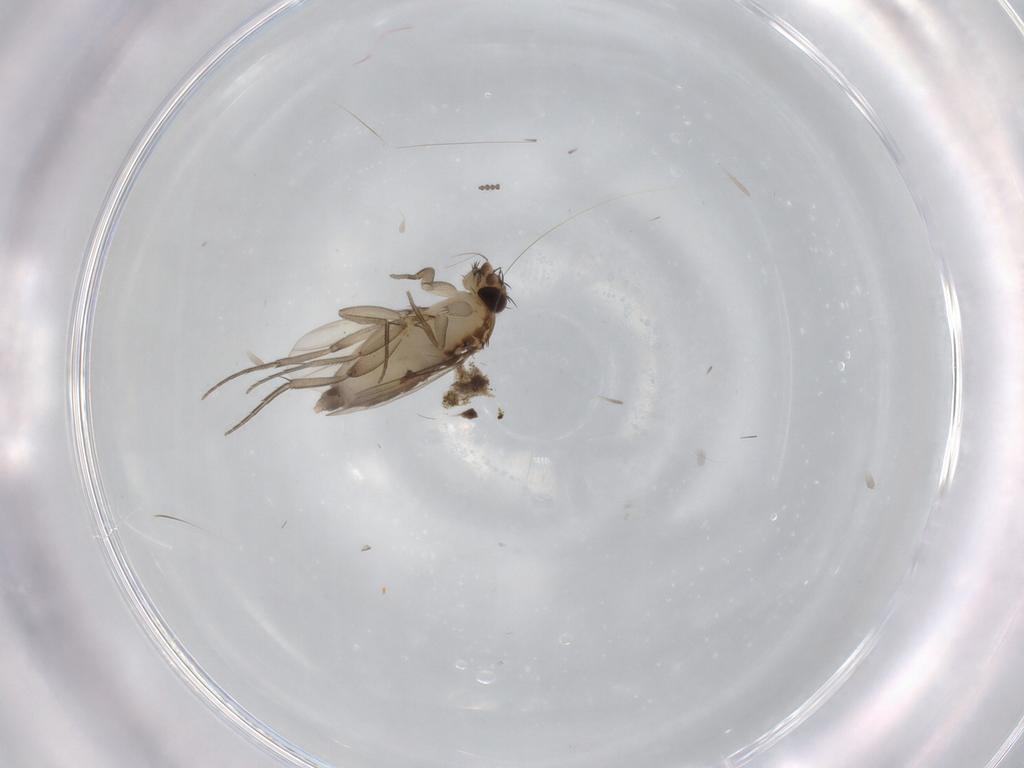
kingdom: Animalia
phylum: Arthropoda
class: Insecta
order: Diptera
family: Phoridae
